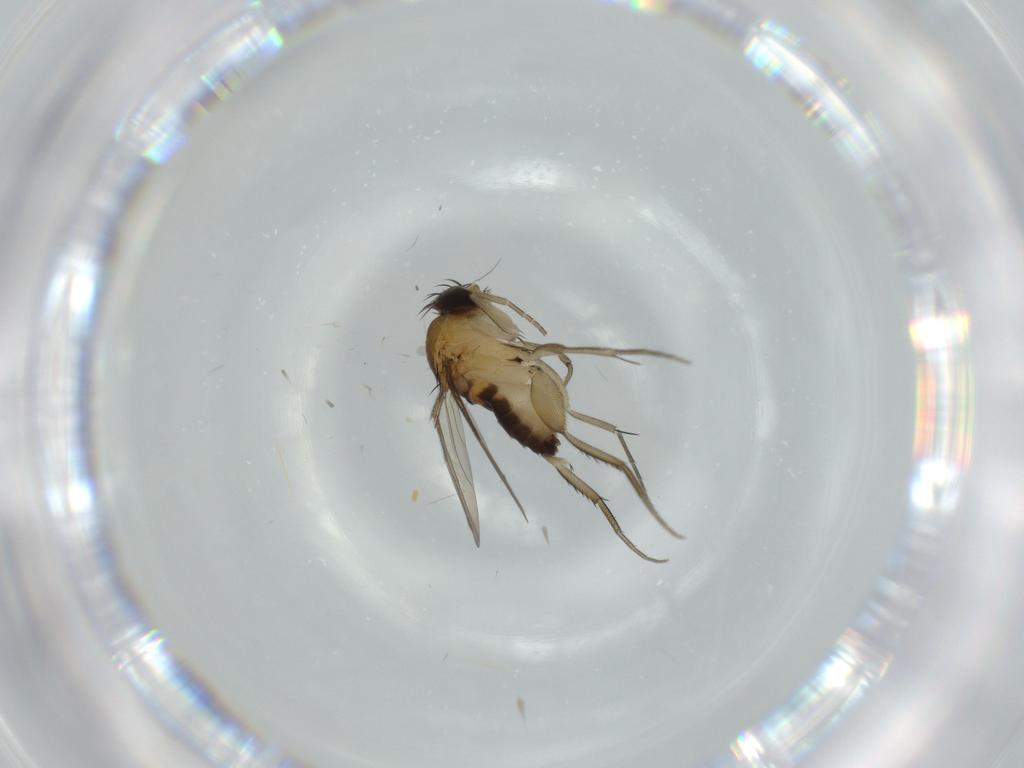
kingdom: Animalia
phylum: Arthropoda
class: Insecta
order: Diptera
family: Phoridae
